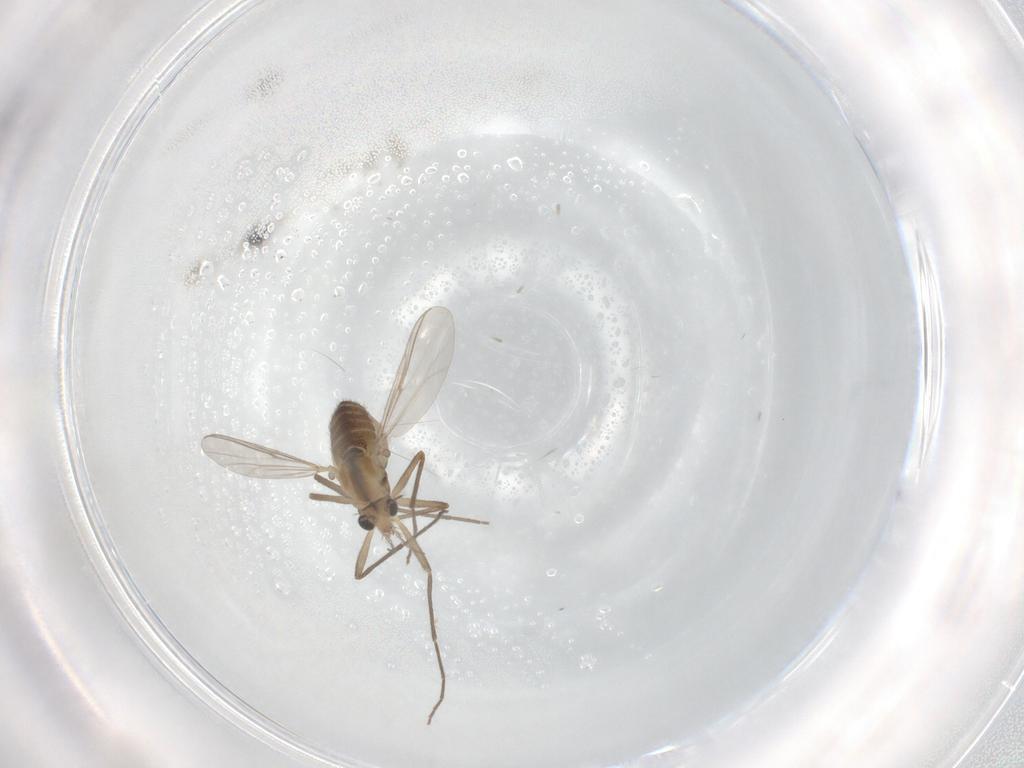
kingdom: Animalia
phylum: Arthropoda
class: Insecta
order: Diptera
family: Chironomidae
